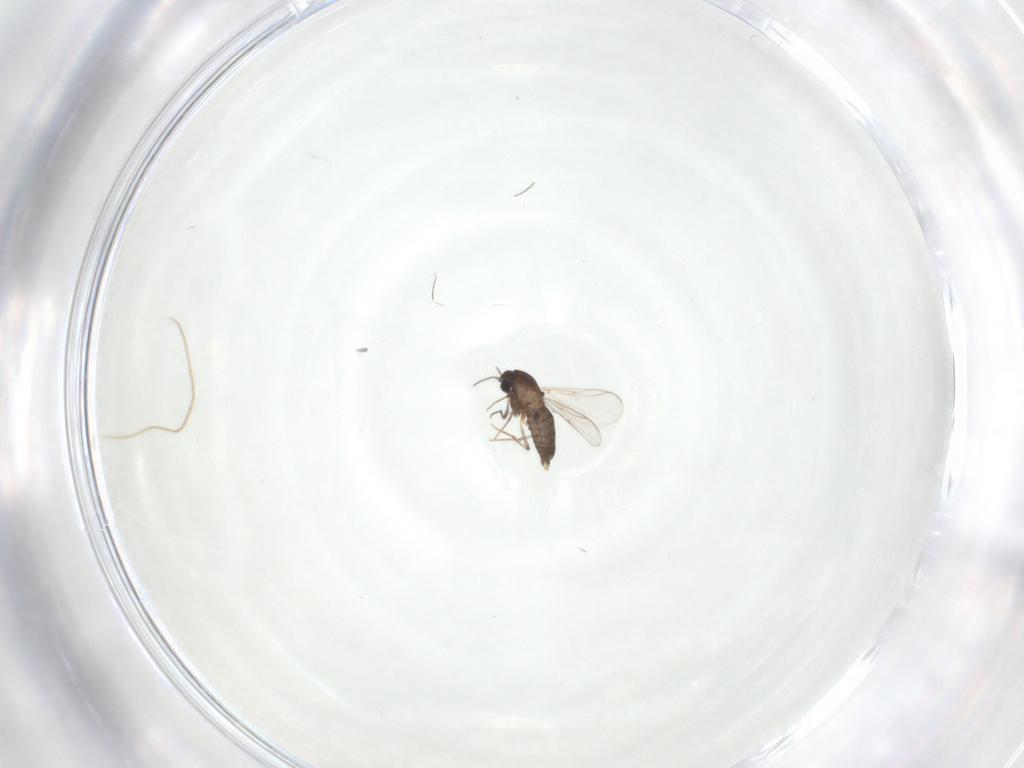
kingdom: Animalia
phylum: Arthropoda
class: Insecta
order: Diptera
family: Chironomidae
